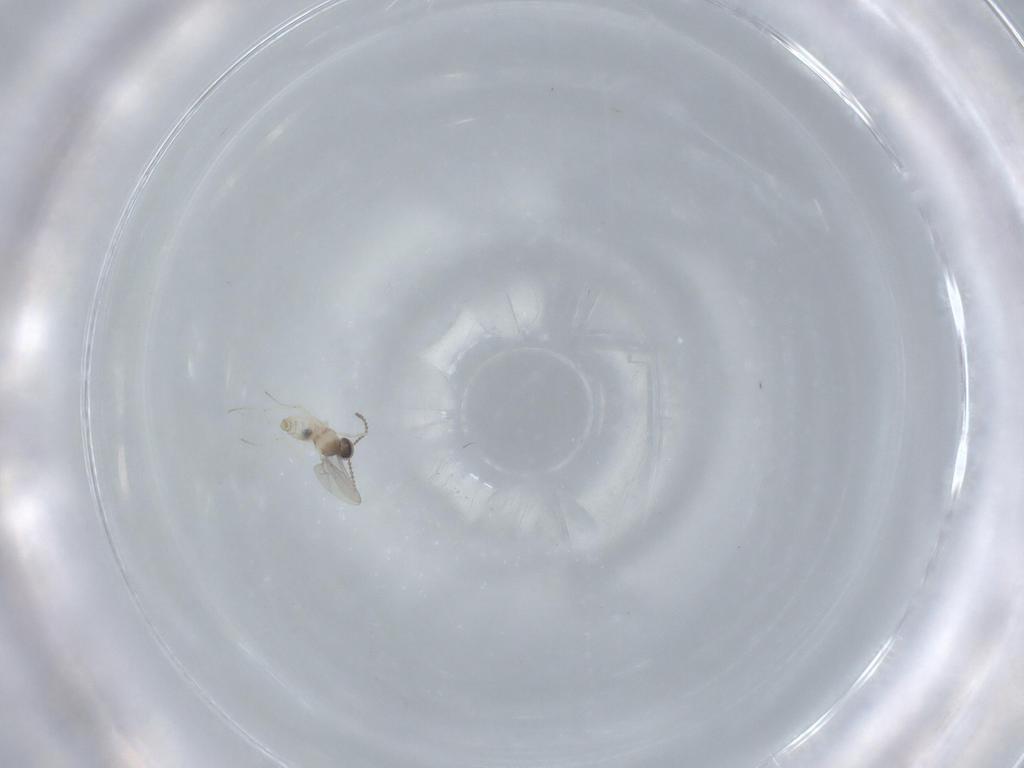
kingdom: Animalia
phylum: Arthropoda
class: Insecta
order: Diptera
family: Cecidomyiidae
